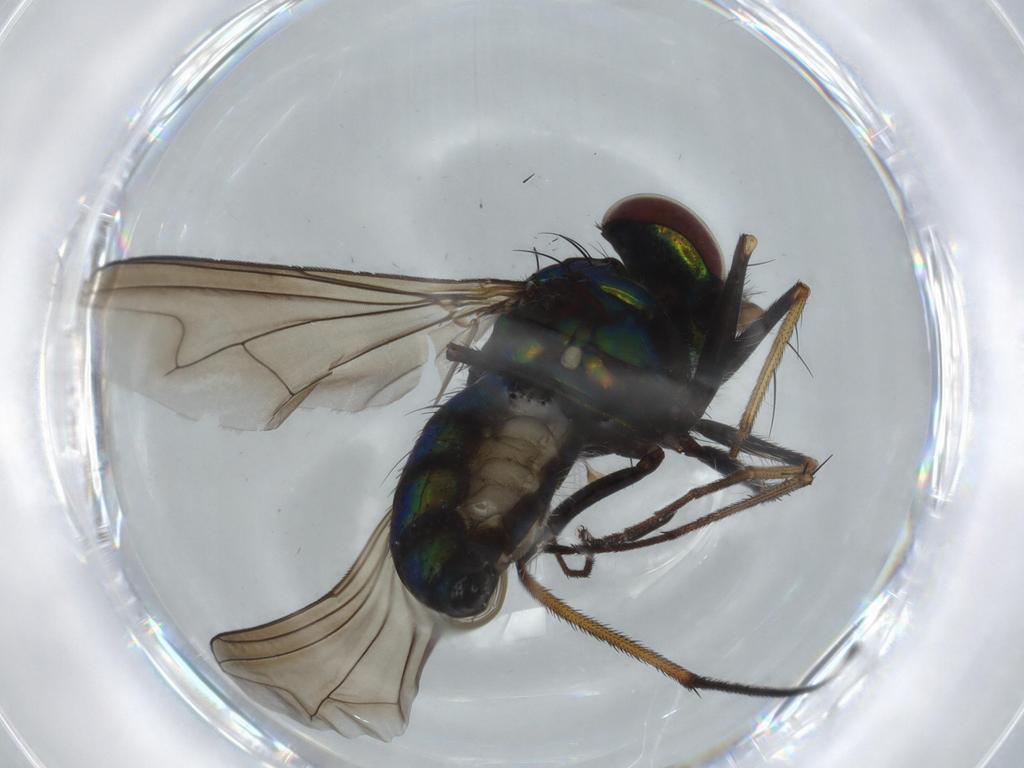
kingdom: Animalia
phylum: Arthropoda
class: Insecta
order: Diptera
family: Dolichopodidae
